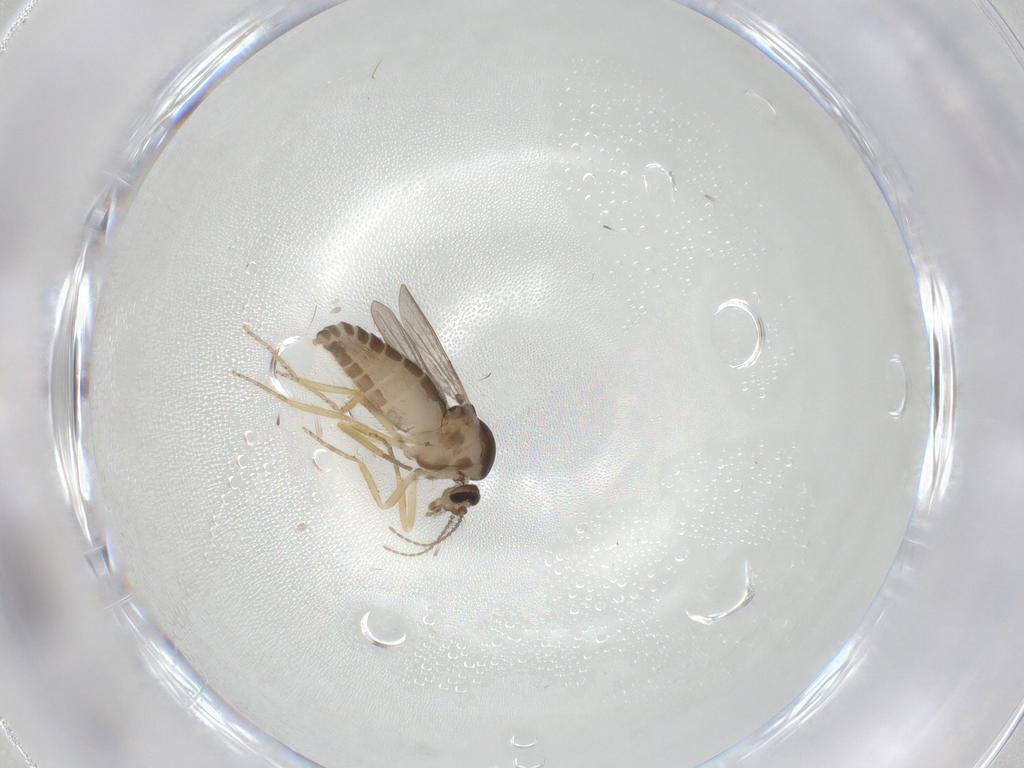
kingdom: Animalia
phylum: Arthropoda
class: Insecta
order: Diptera
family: Ceratopogonidae
